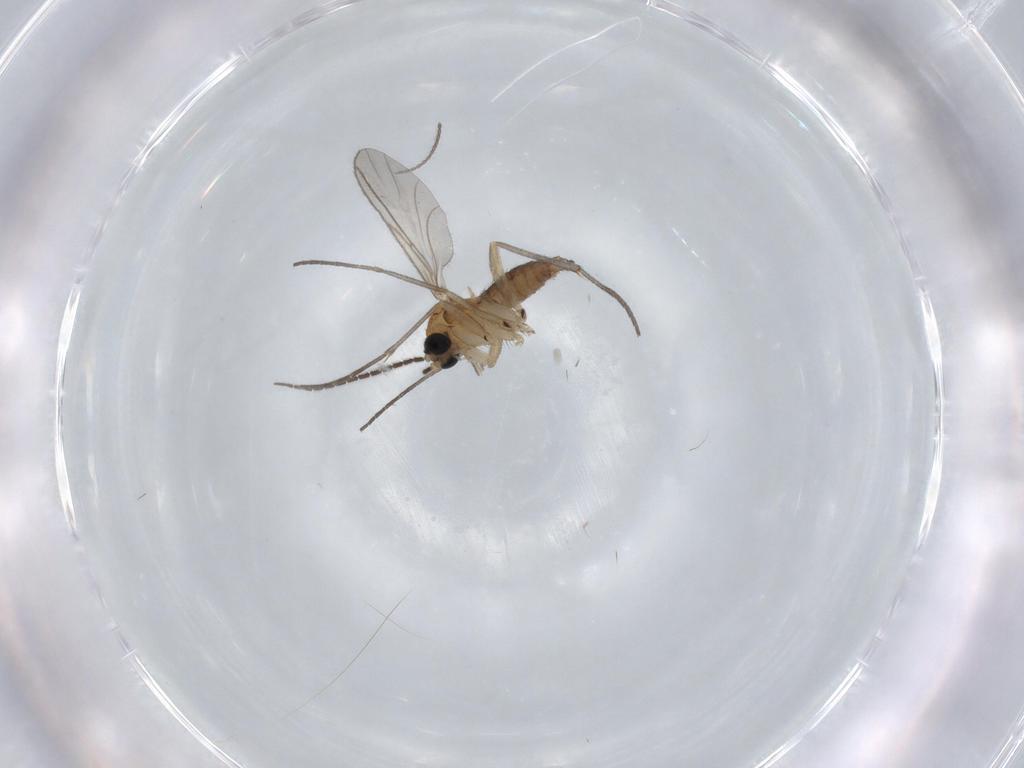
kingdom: Animalia
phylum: Arthropoda
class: Insecta
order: Diptera
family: Sciaridae
